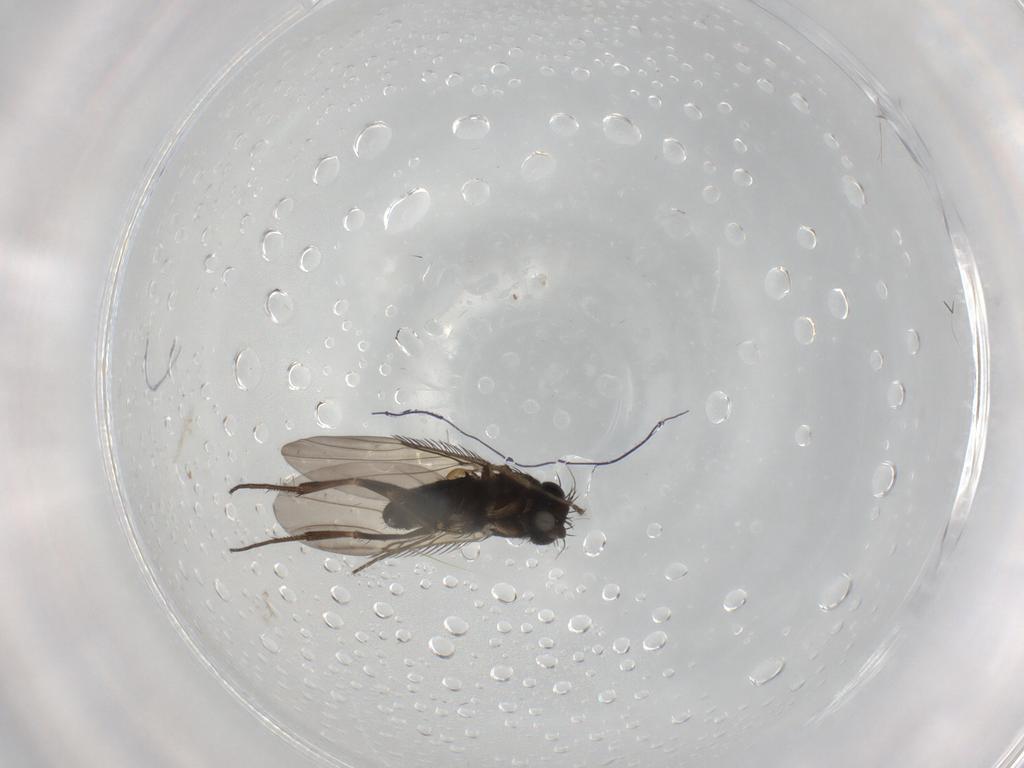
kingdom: Animalia
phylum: Arthropoda
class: Insecta
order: Diptera
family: Phoridae
